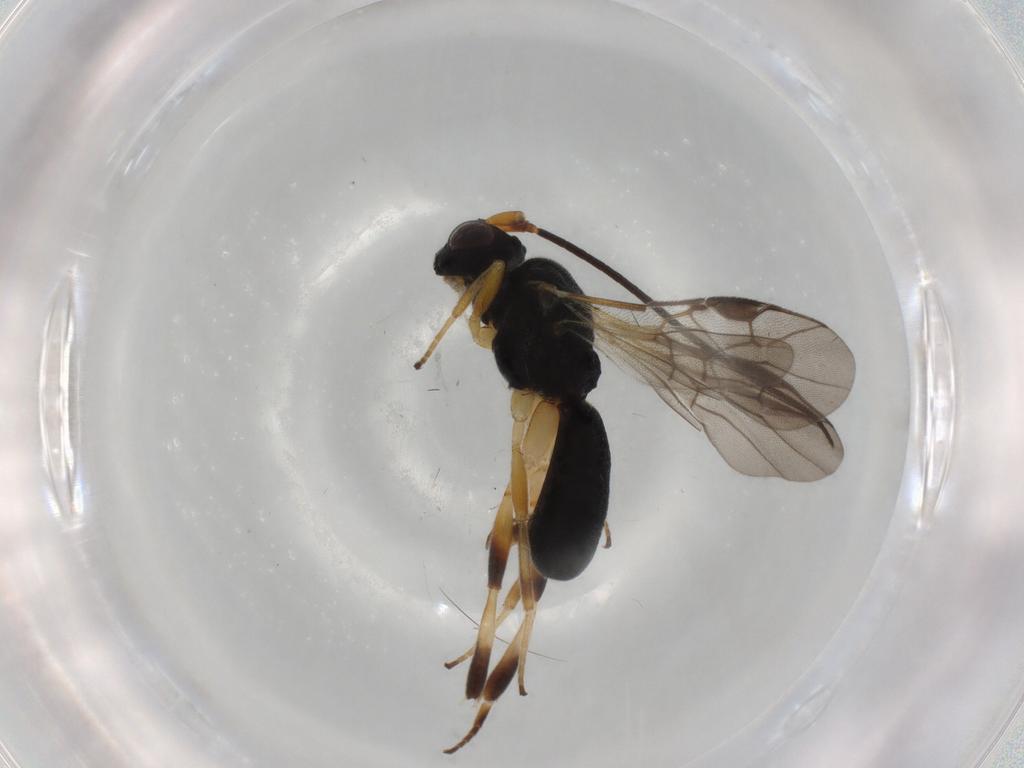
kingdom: Animalia
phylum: Arthropoda
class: Insecta
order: Hymenoptera
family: Braconidae
